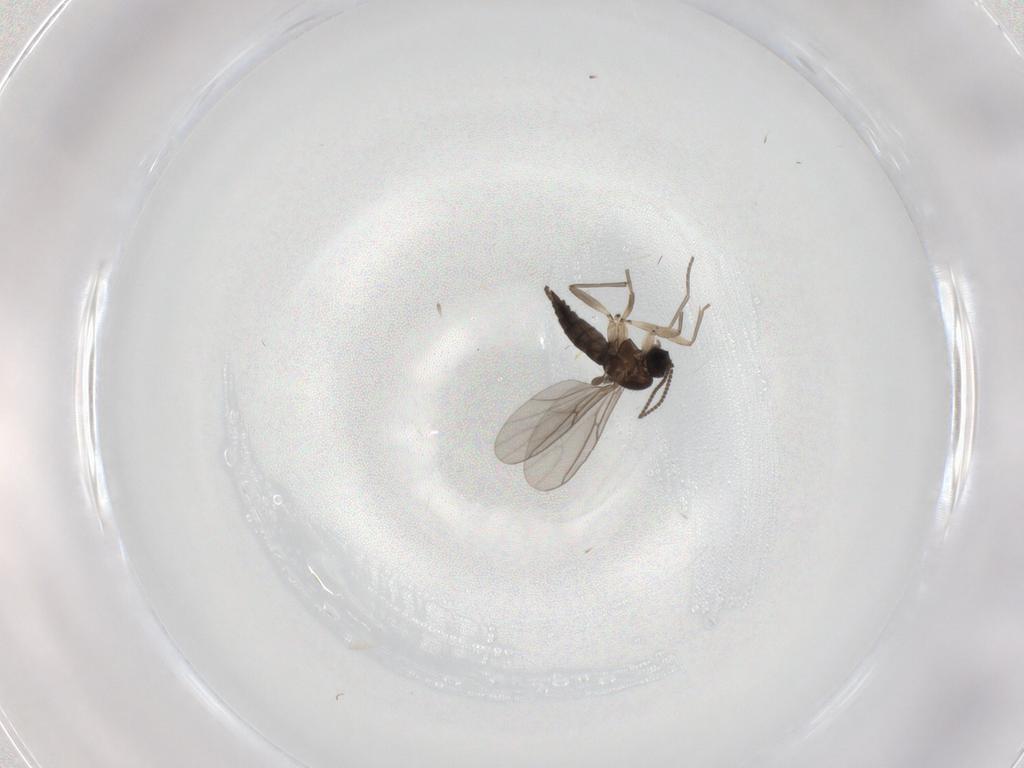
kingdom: Animalia
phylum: Arthropoda
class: Insecta
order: Diptera
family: Sciaridae
